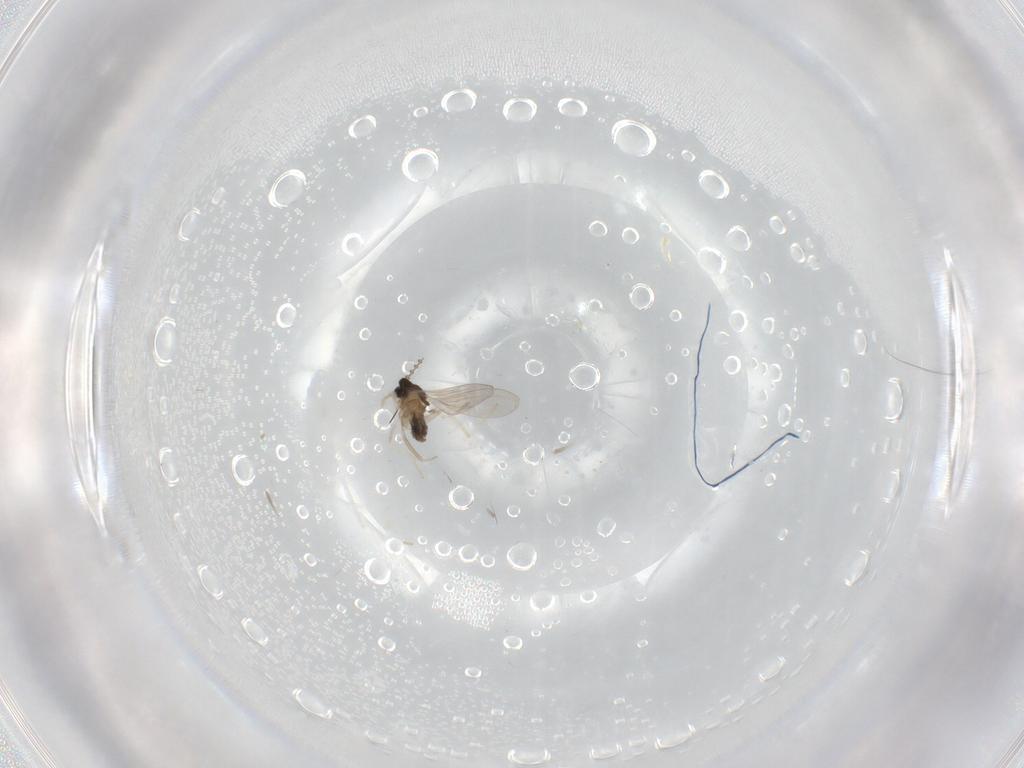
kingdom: Animalia
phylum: Arthropoda
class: Insecta
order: Diptera
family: Cecidomyiidae
